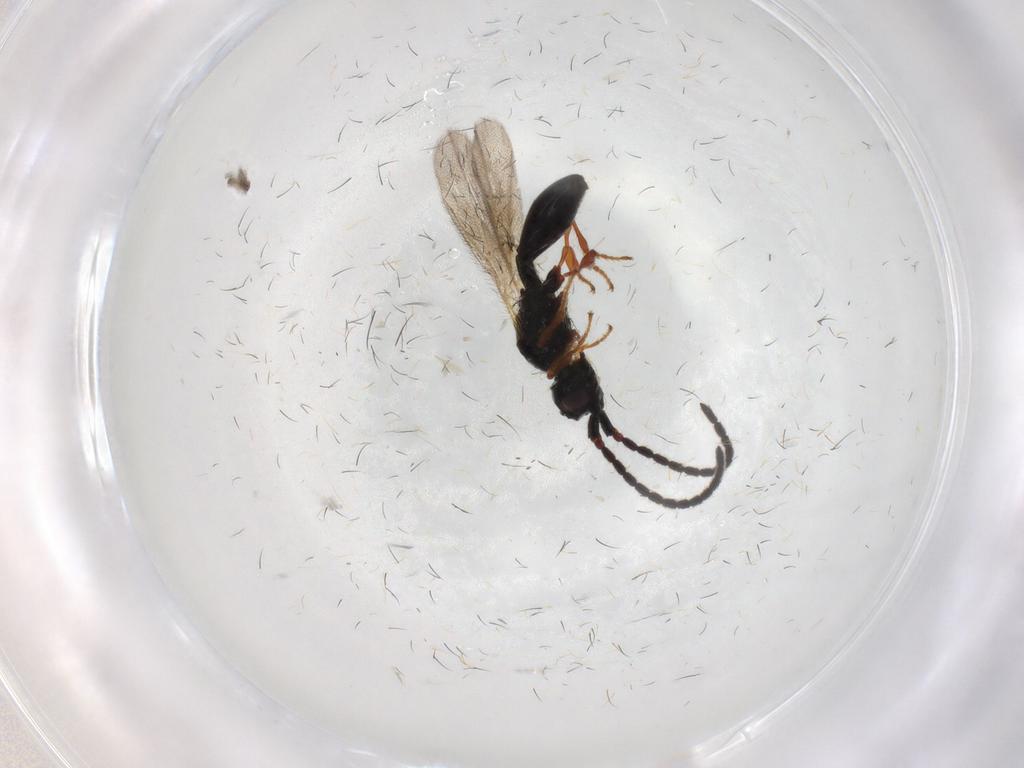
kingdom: Animalia
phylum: Arthropoda
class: Insecta
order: Hymenoptera
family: Diapriidae
